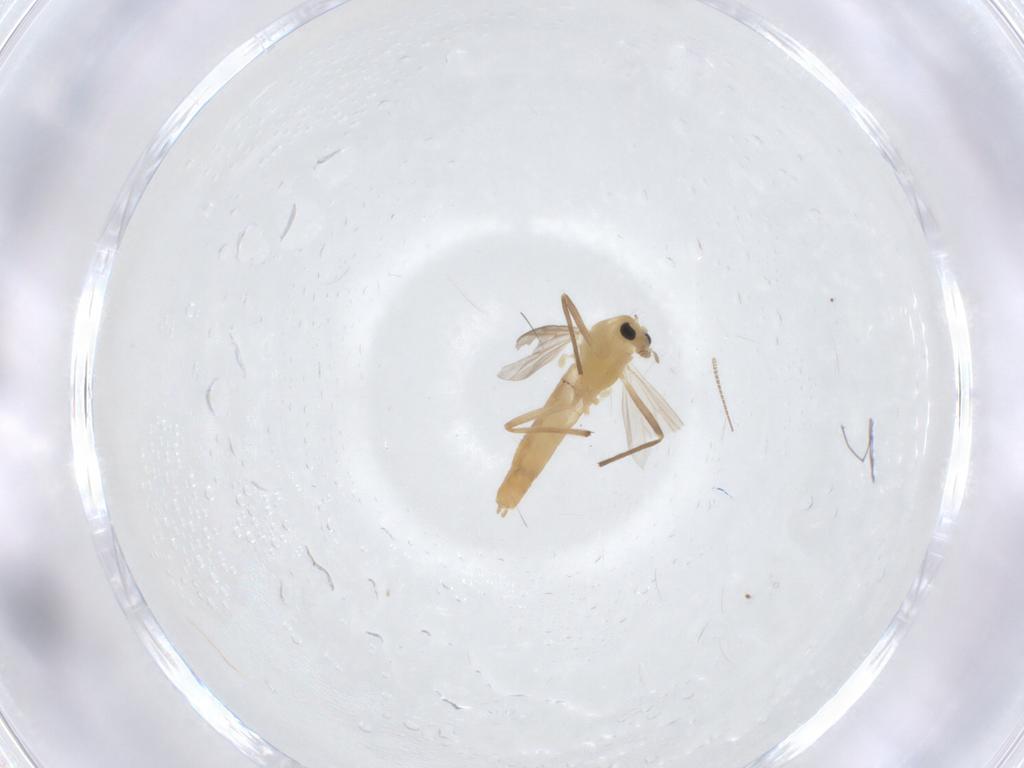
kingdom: Animalia
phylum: Arthropoda
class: Insecta
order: Diptera
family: Chironomidae
